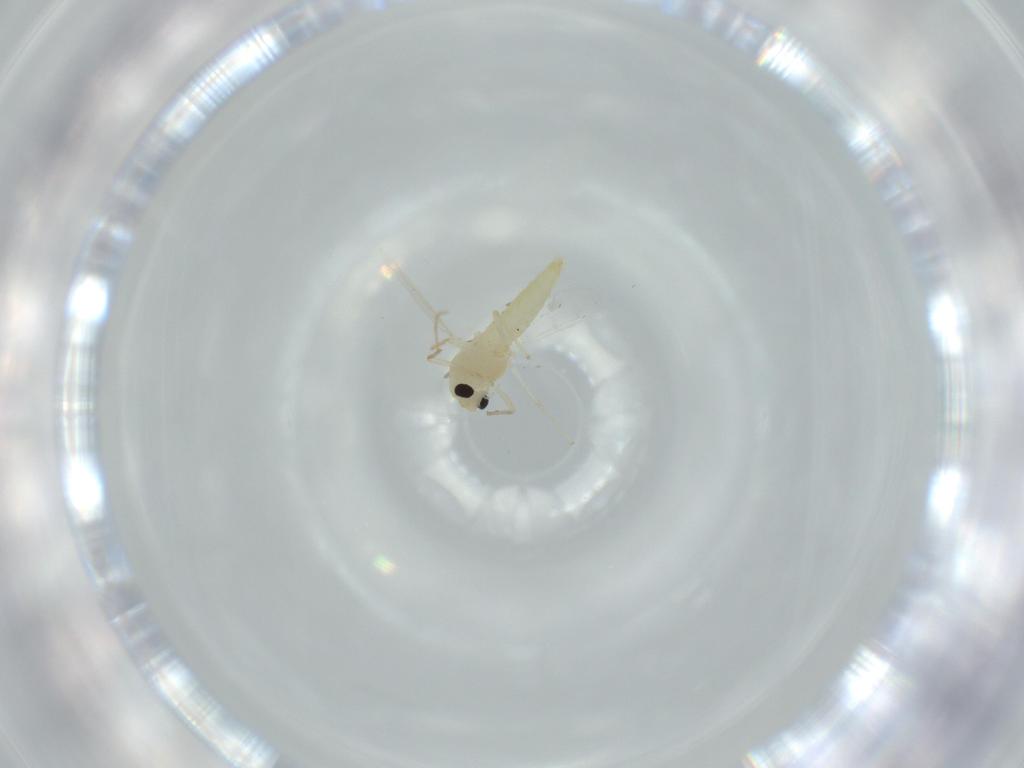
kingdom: Animalia
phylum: Arthropoda
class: Insecta
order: Diptera
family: Chironomidae
